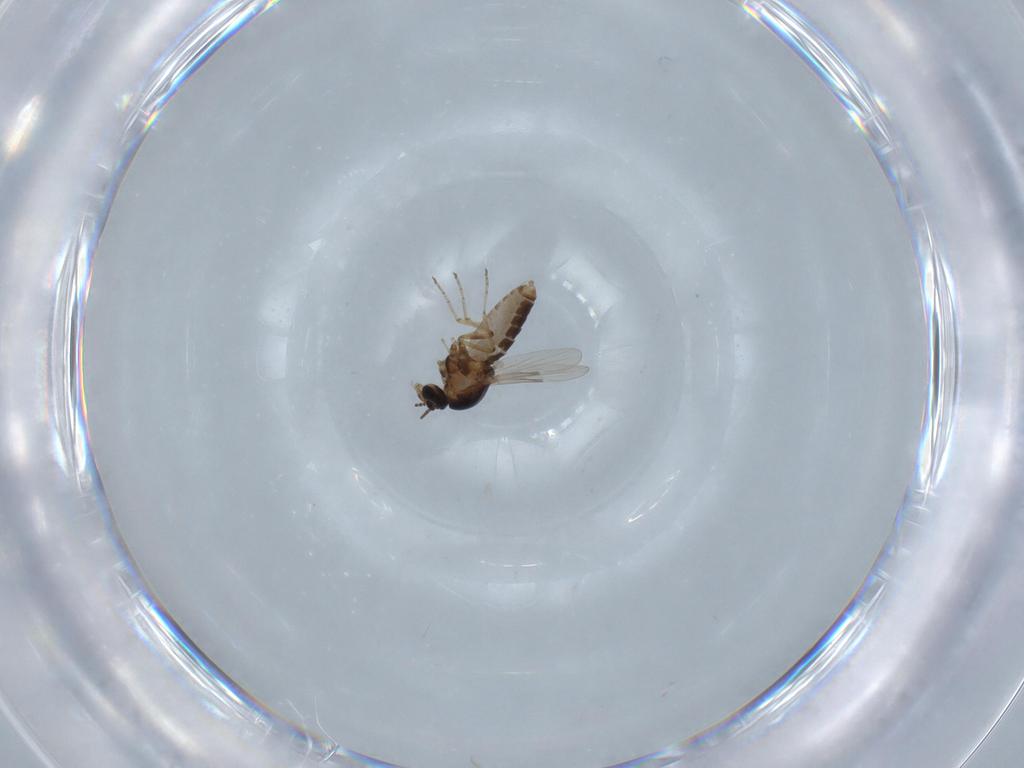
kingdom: Animalia
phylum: Arthropoda
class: Insecta
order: Diptera
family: Ceratopogonidae
